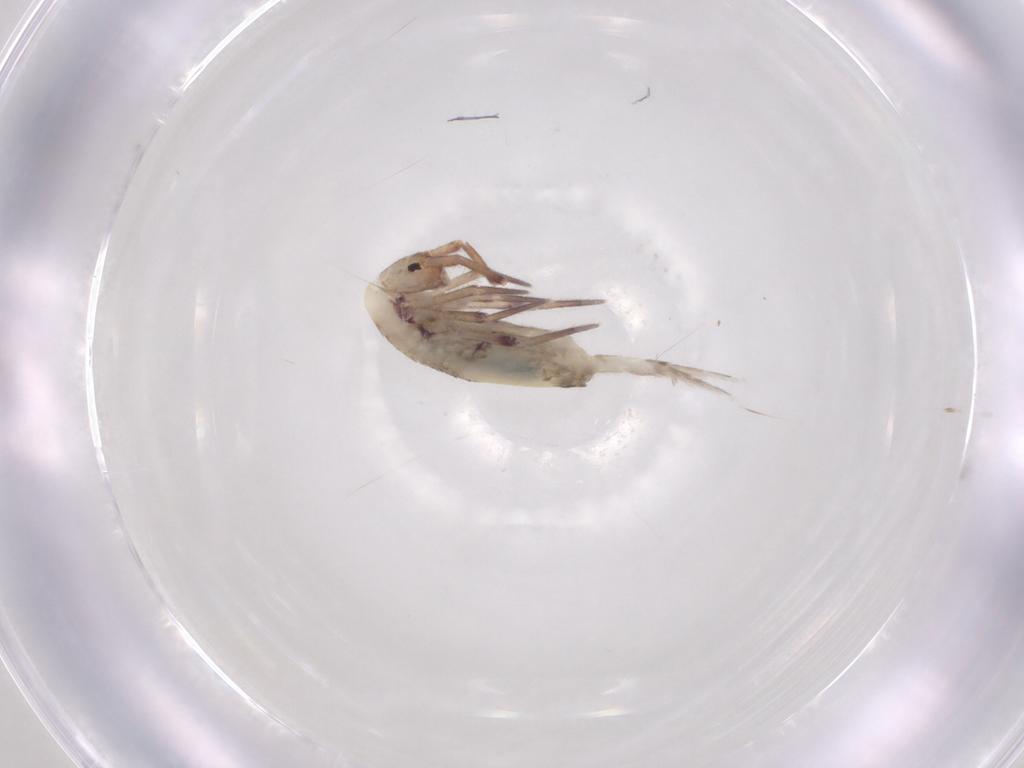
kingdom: Animalia
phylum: Arthropoda
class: Collembola
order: Entomobryomorpha
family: Entomobryidae
